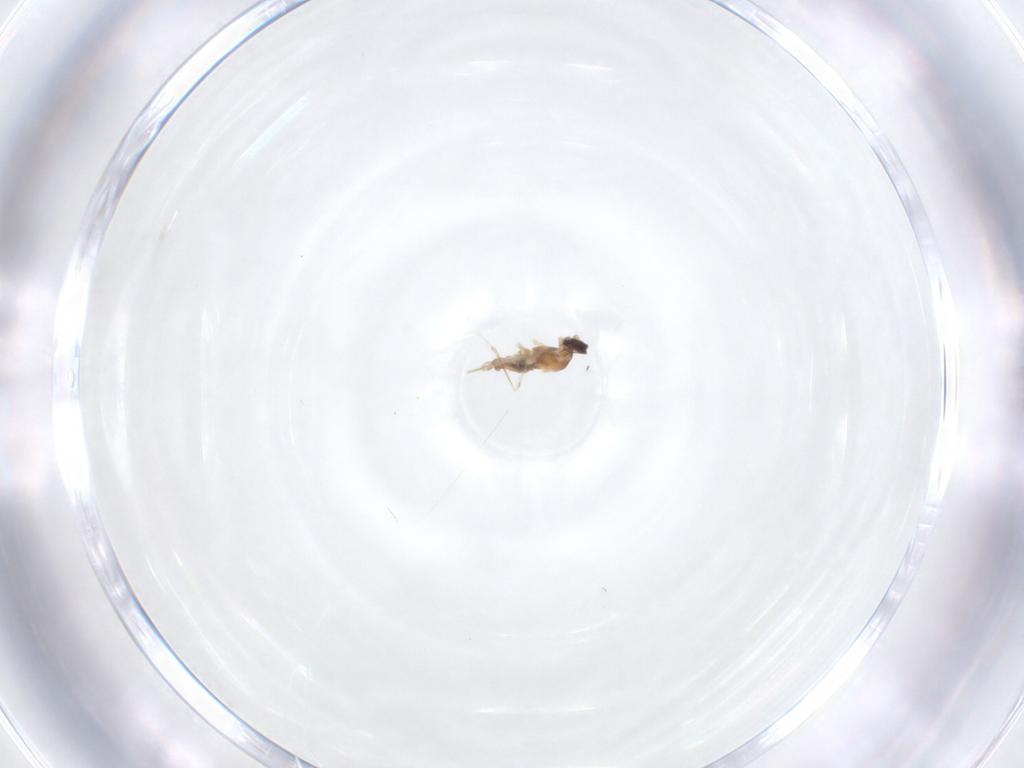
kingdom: Animalia
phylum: Arthropoda
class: Insecta
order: Diptera
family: Cecidomyiidae
